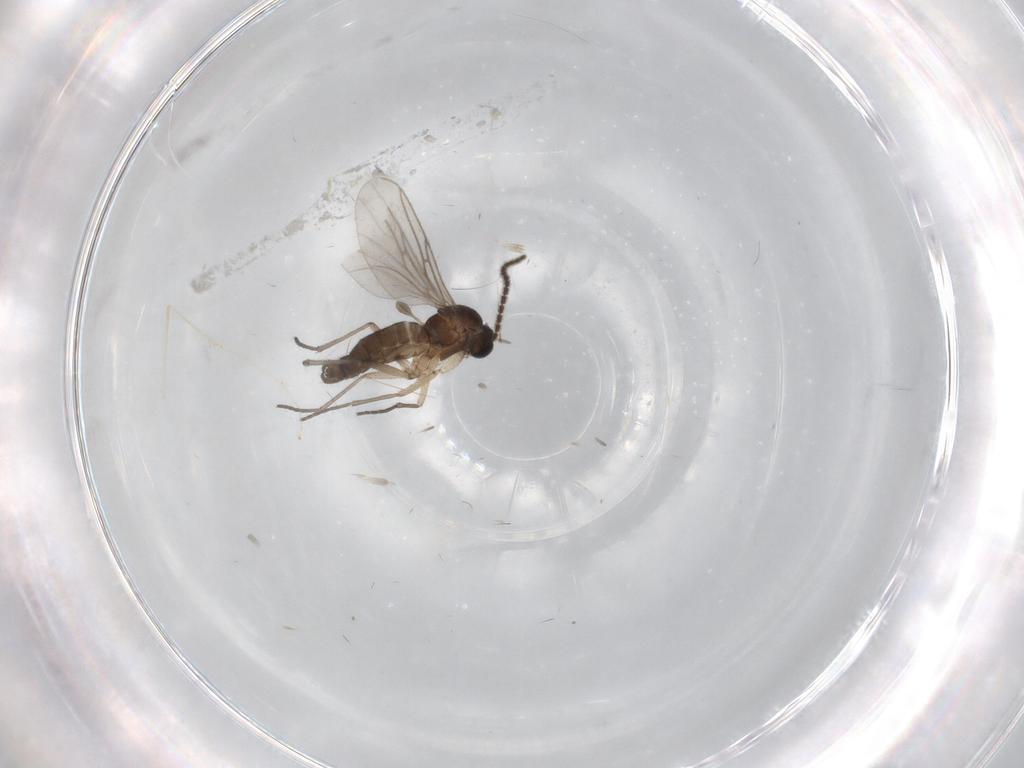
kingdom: Animalia
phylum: Arthropoda
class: Insecta
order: Diptera
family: Sciaridae
